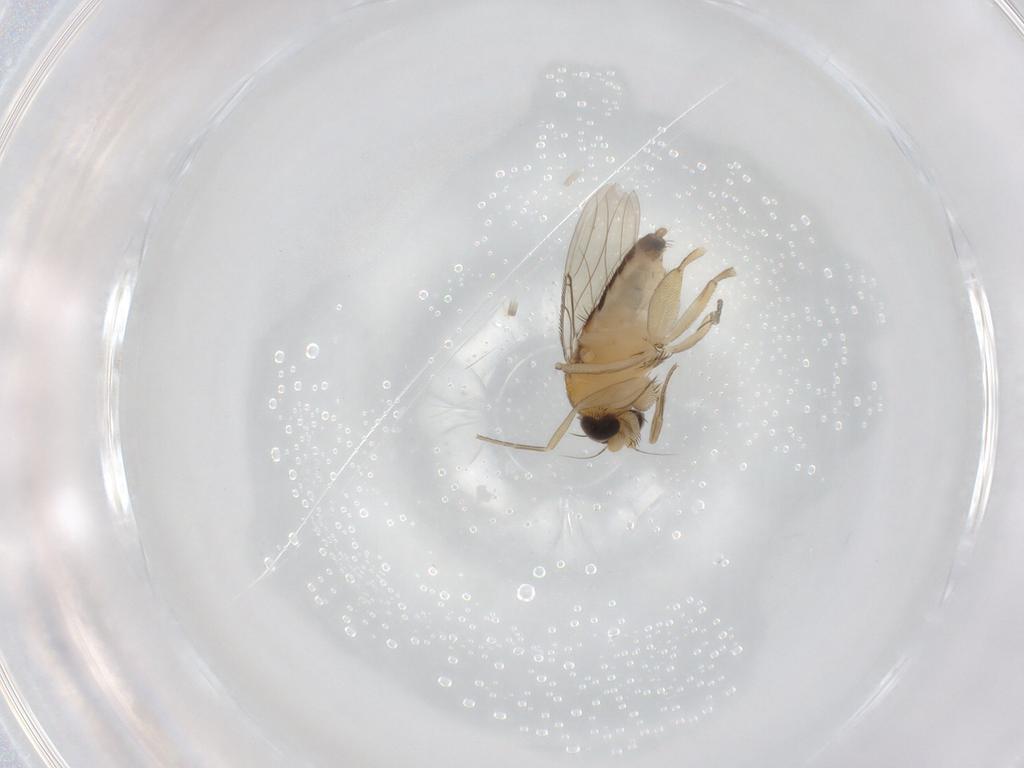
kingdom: Animalia
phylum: Arthropoda
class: Insecta
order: Diptera
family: Phoridae
